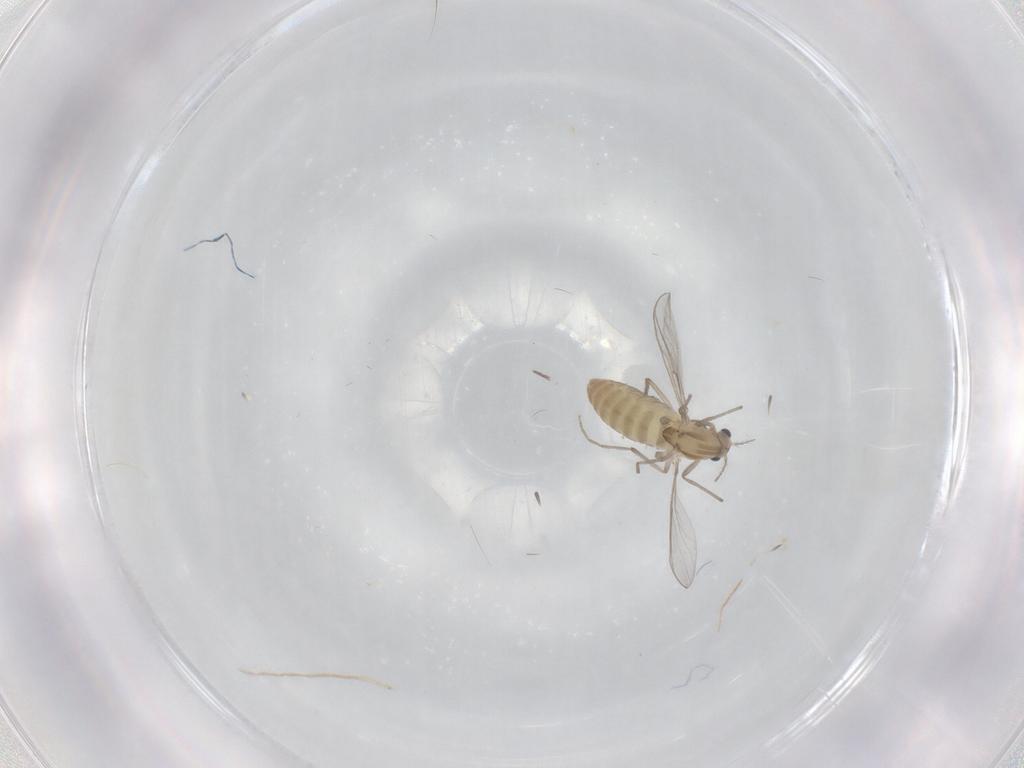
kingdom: Animalia
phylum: Arthropoda
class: Insecta
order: Diptera
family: Chironomidae
